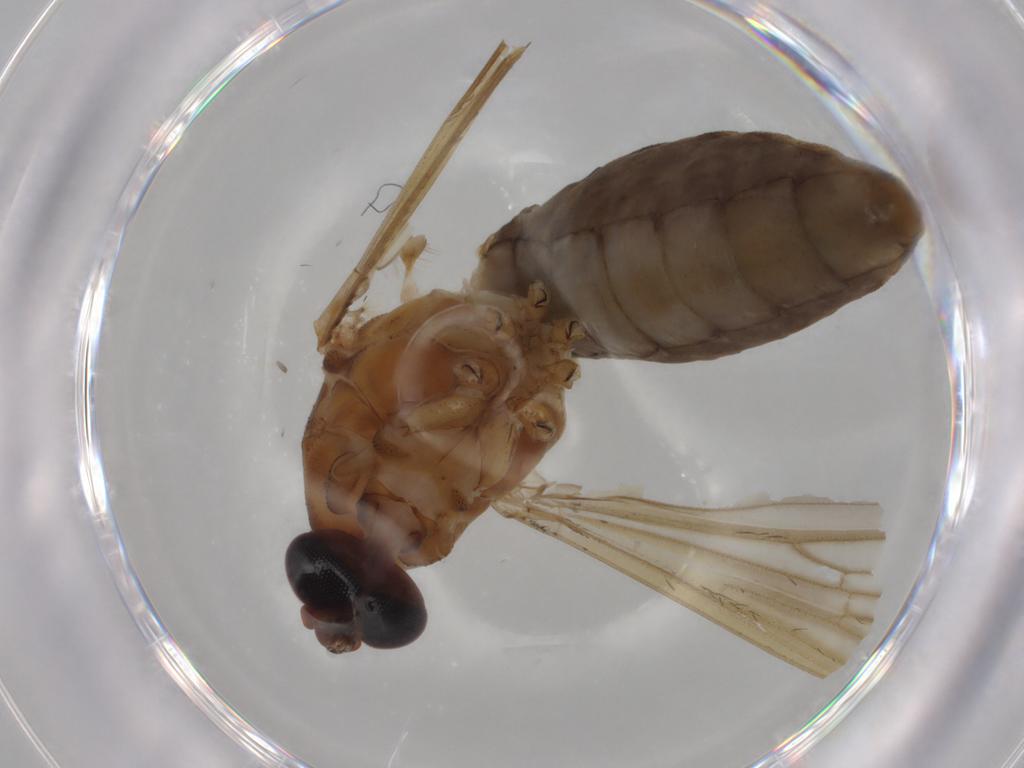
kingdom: Animalia
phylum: Arthropoda
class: Insecta
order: Diptera
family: Culicidae
